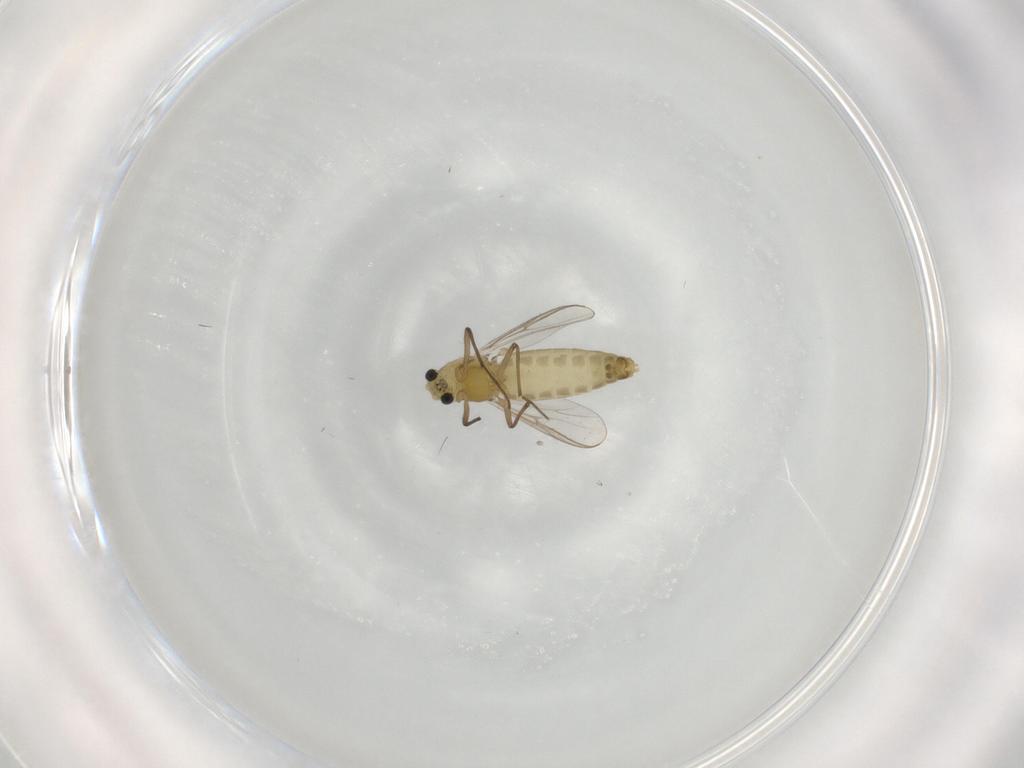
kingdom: Animalia
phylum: Arthropoda
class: Insecta
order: Diptera
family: Chironomidae
